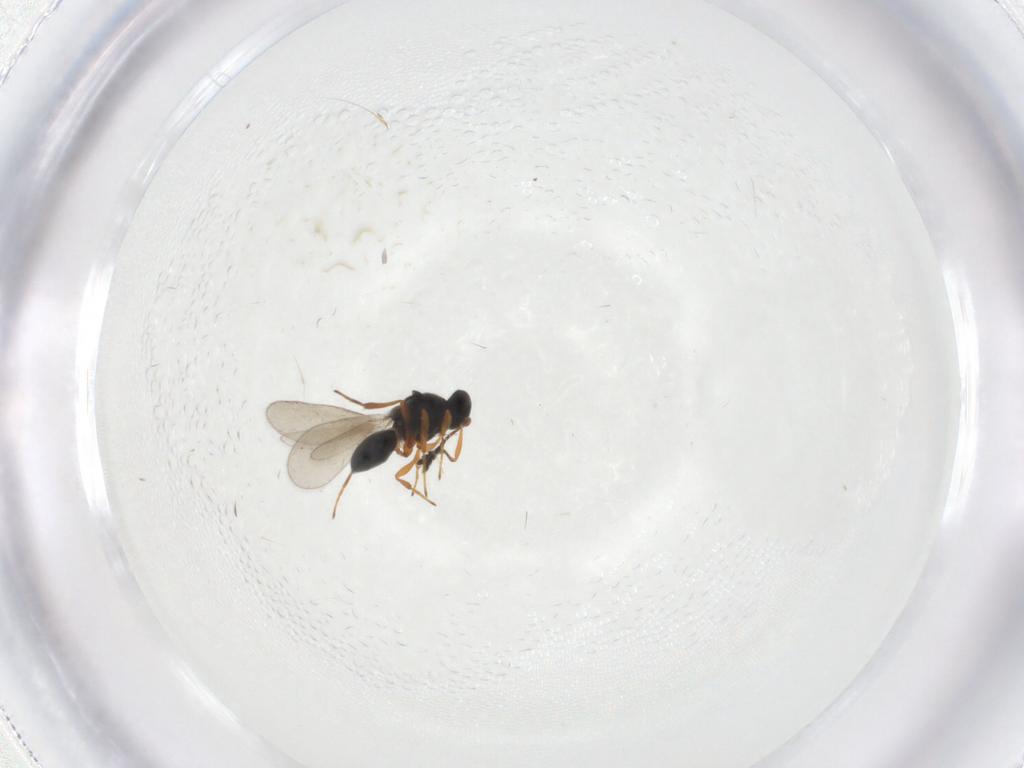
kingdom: Animalia
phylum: Arthropoda
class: Insecta
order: Hymenoptera
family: Platygastridae
